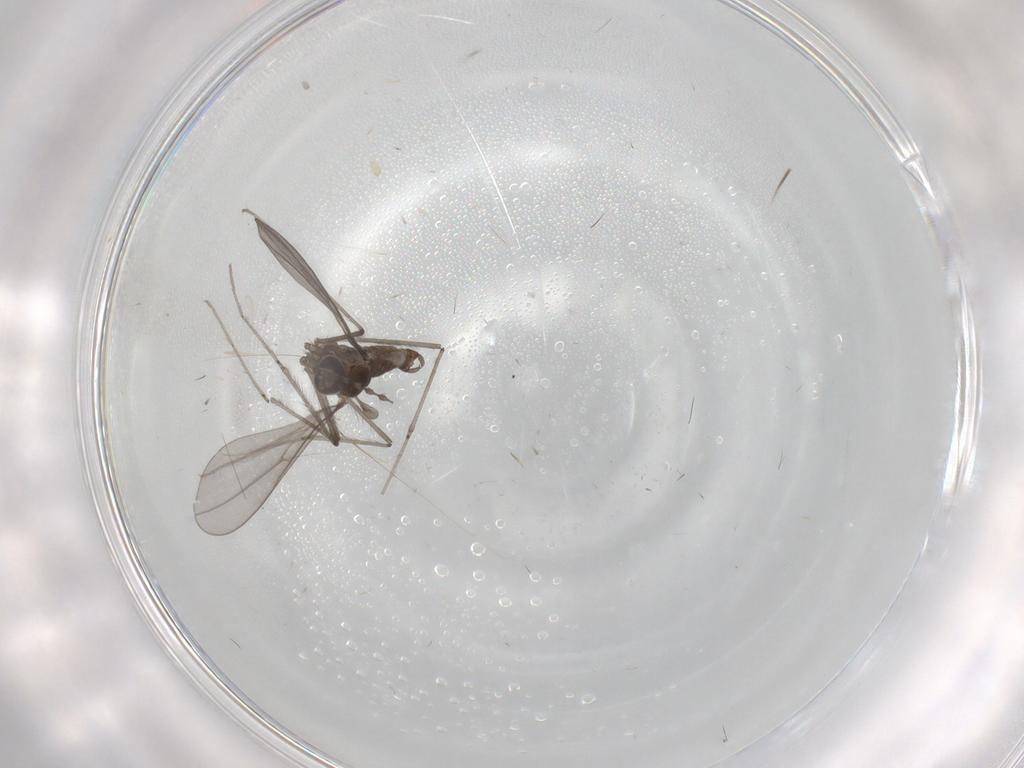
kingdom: Animalia
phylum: Arthropoda
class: Insecta
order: Diptera
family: Cecidomyiidae
